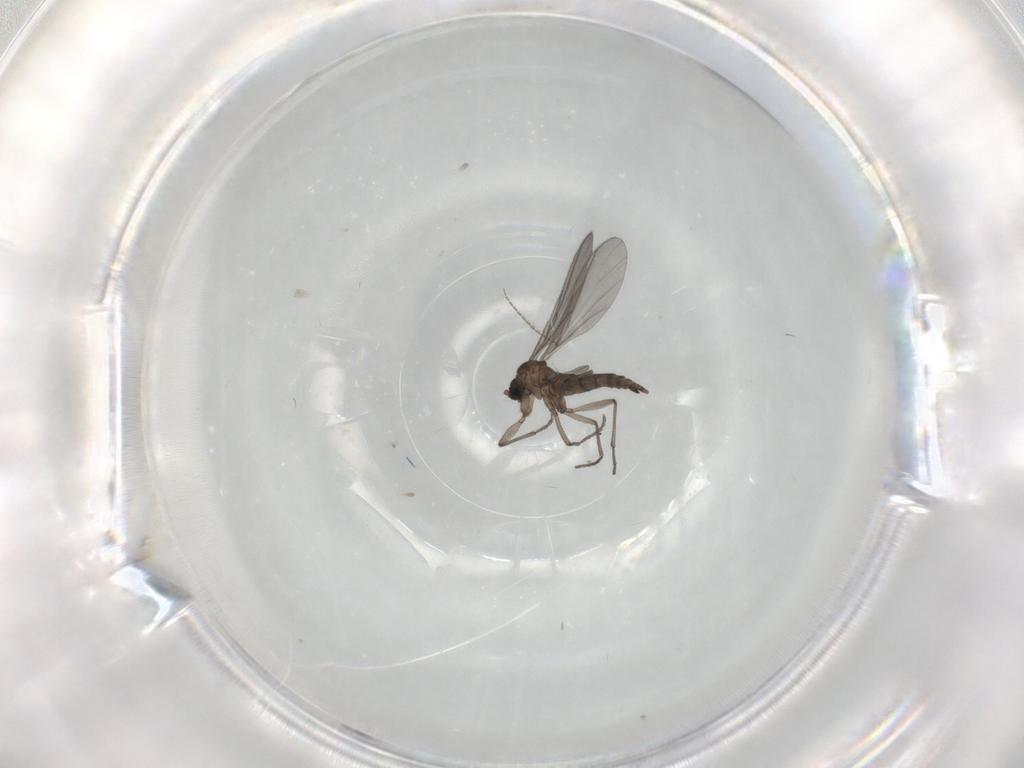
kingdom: Animalia
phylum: Arthropoda
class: Insecta
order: Diptera
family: Sciaridae
